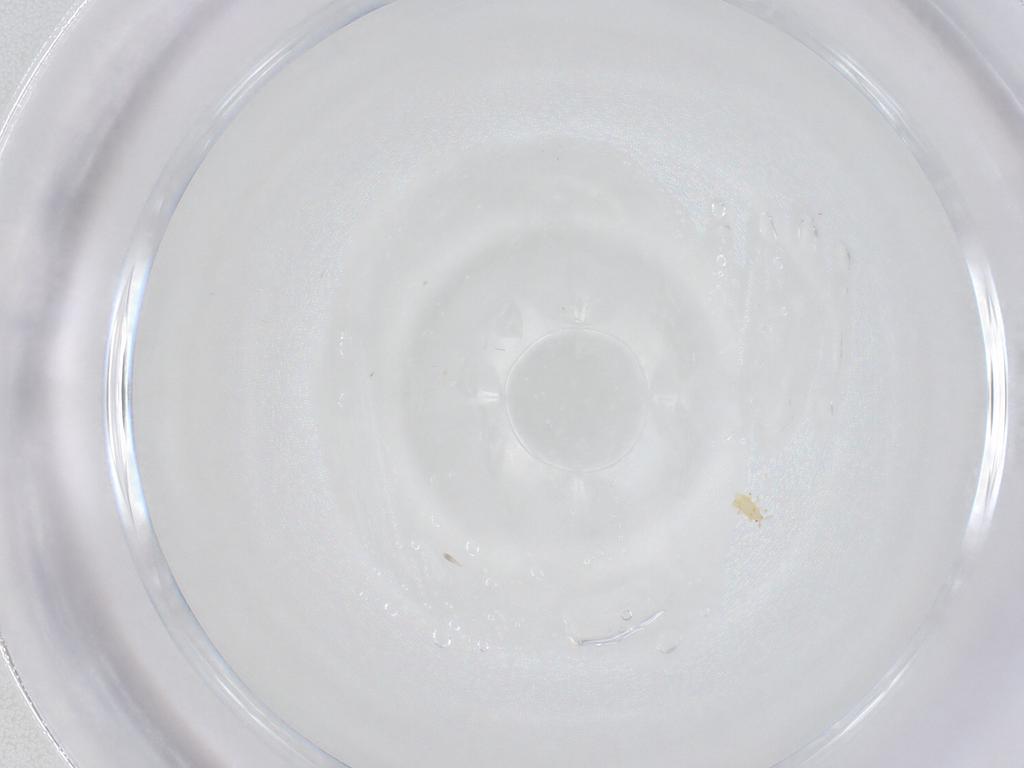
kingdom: Animalia
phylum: Arthropoda
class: Insecta
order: Thysanoptera
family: Thripidae
